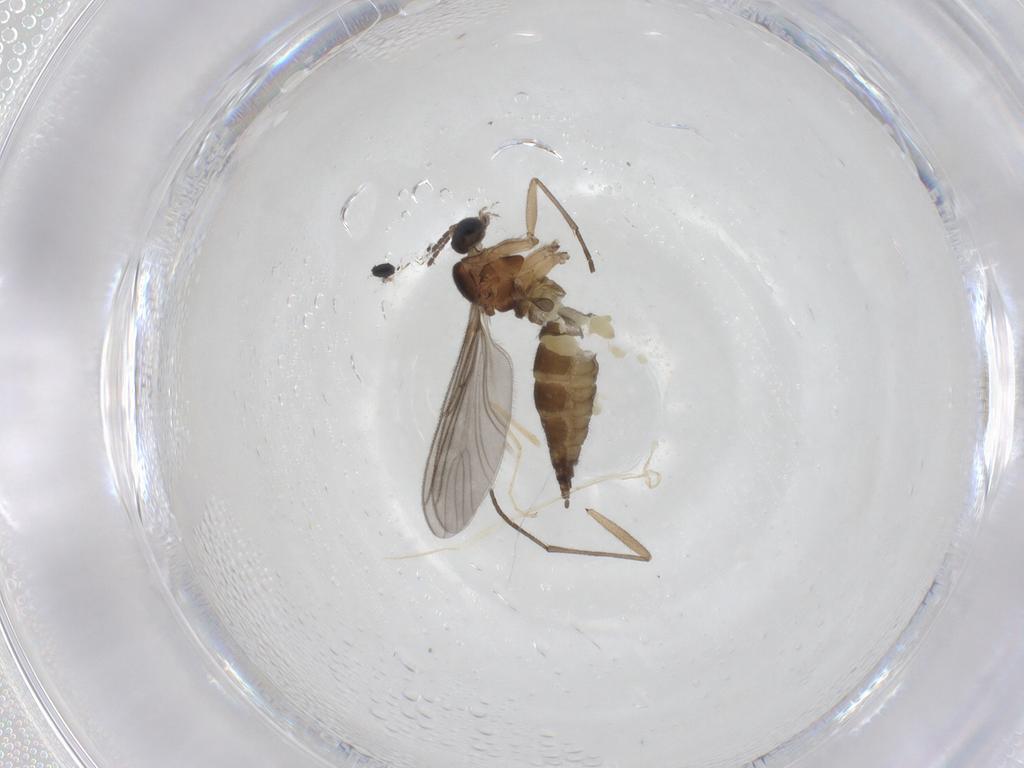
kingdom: Animalia
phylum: Arthropoda
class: Insecta
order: Diptera
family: Sciaridae
